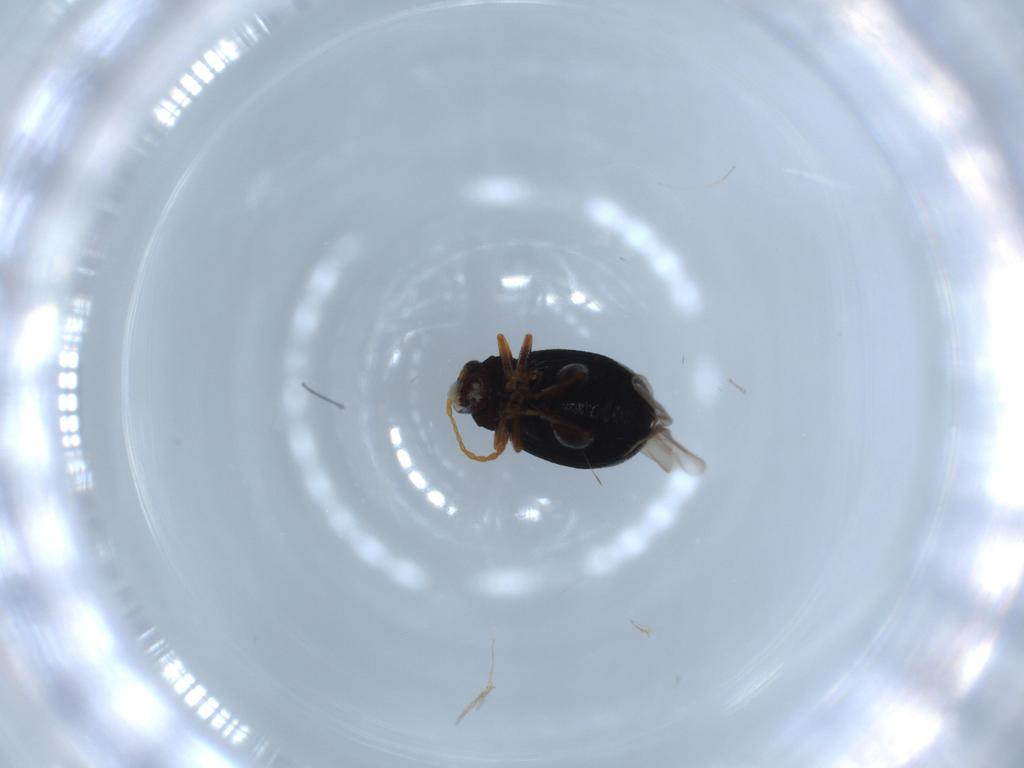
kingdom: Animalia
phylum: Arthropoda
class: Insecta
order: Coleoptera
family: Chrysomelidae
